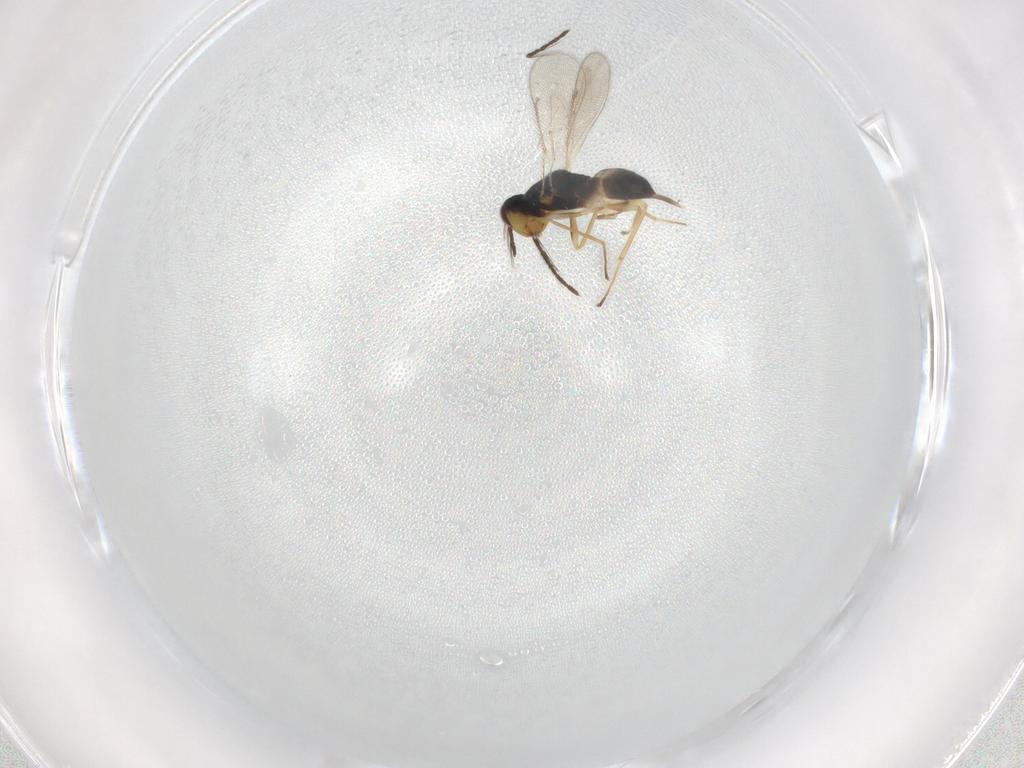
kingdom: Animalia
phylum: Arthropoda
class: Insecta
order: Hymenoptera
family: Eulophidae
